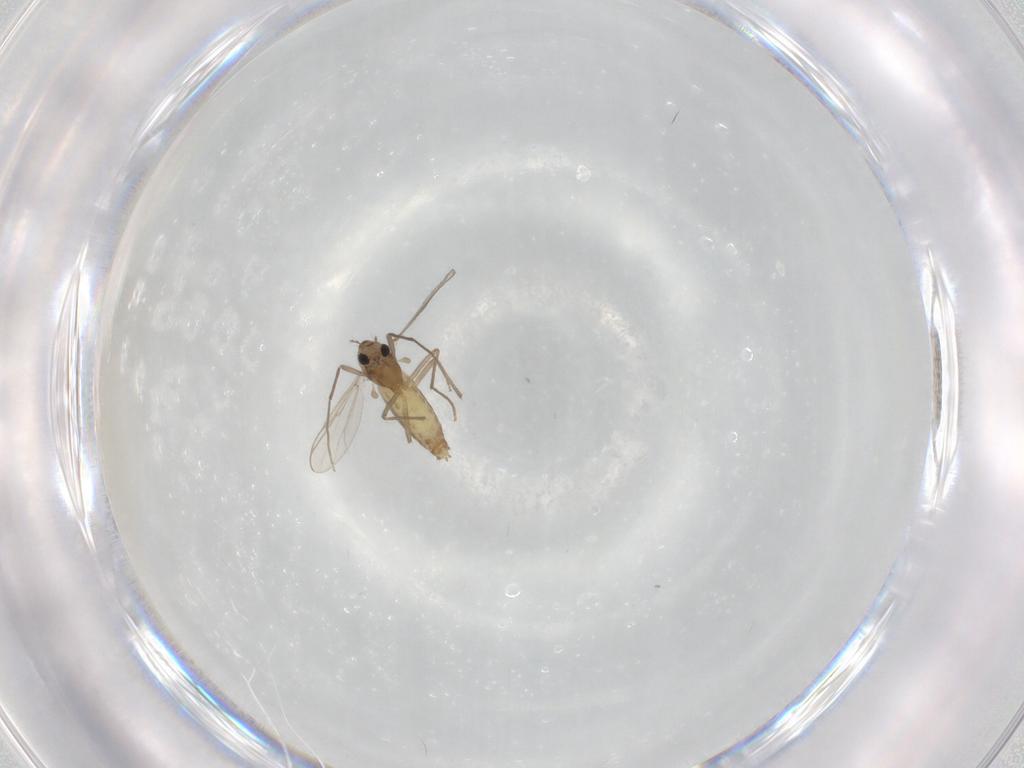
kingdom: Animalia
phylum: Arthropoda
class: Insecta
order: Diptera
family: Chironomidae
